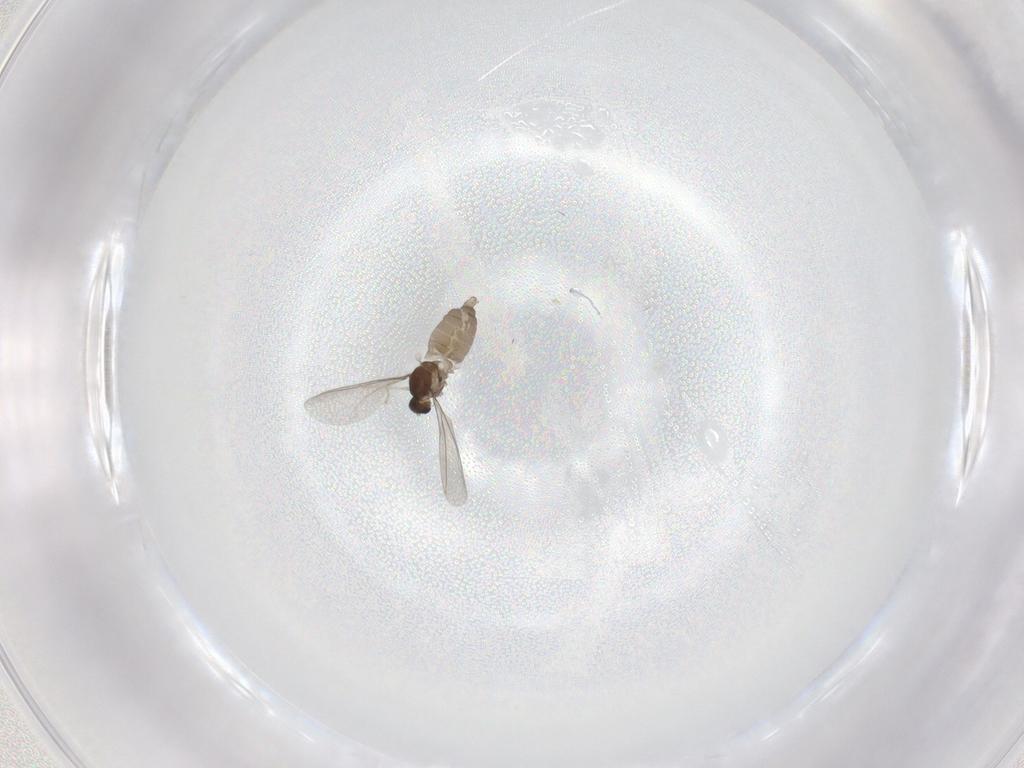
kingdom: Animalia
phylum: Arthropoda
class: Insecta
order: Diptera
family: Cecidomyiidae
